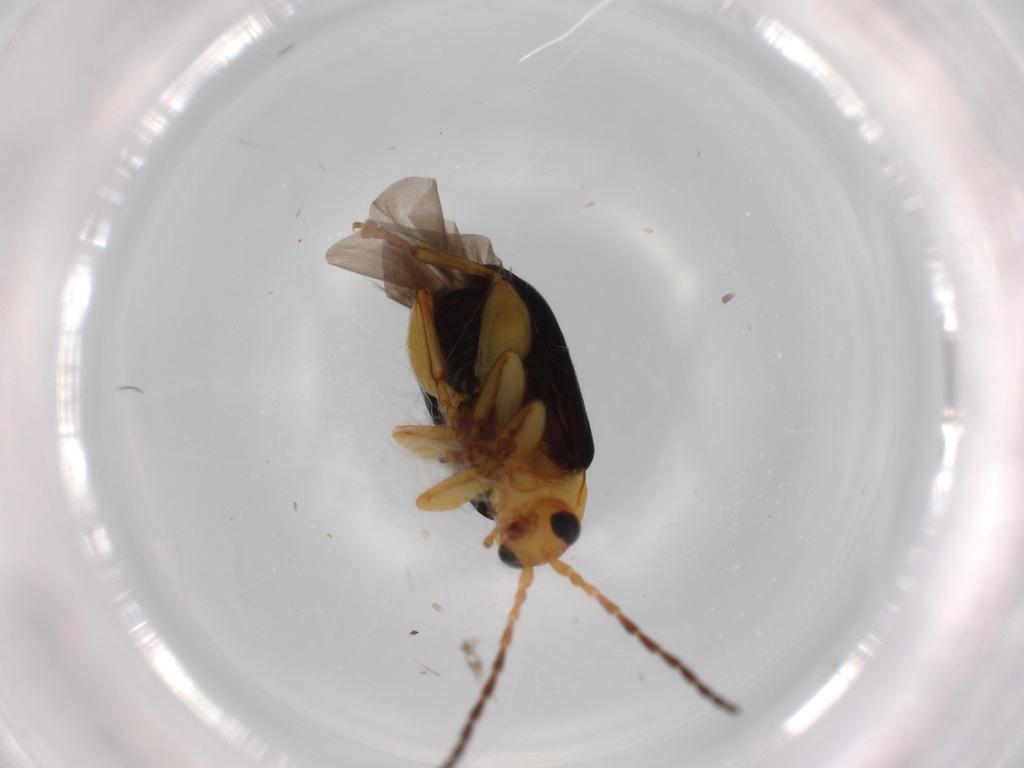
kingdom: Animalia
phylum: Arthropoda
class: Insecta
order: Coleoptera
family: Chrysomelidae
